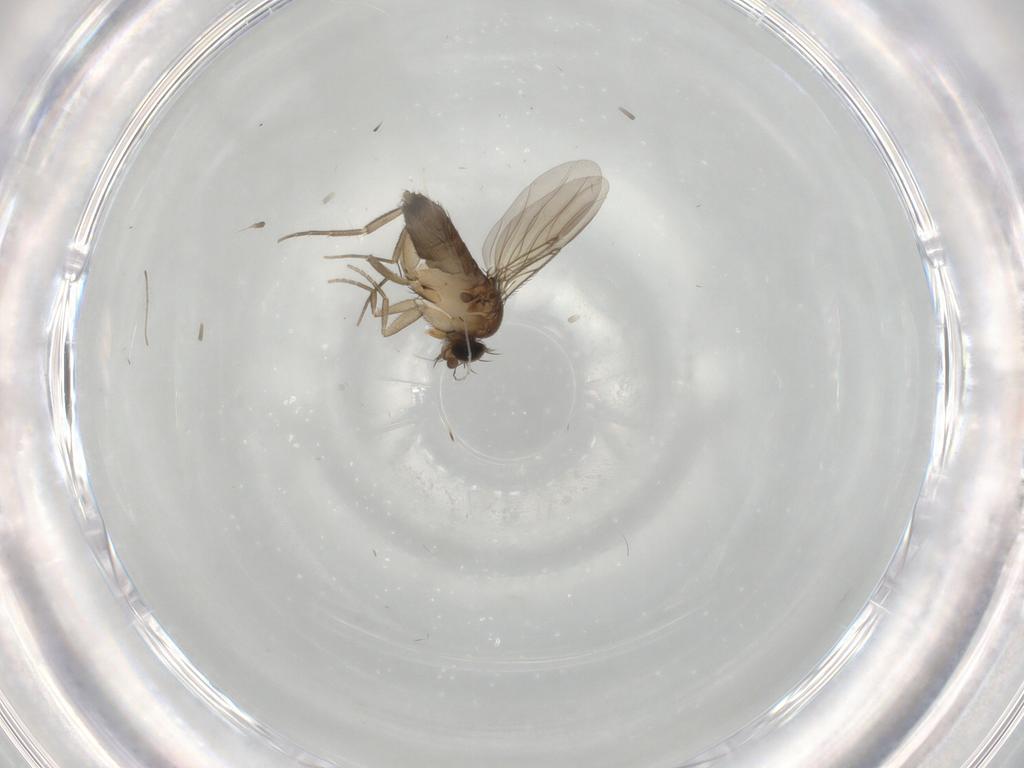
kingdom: Animalia
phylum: Arthropoda
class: Insecta
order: Diptera
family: Phoridae
